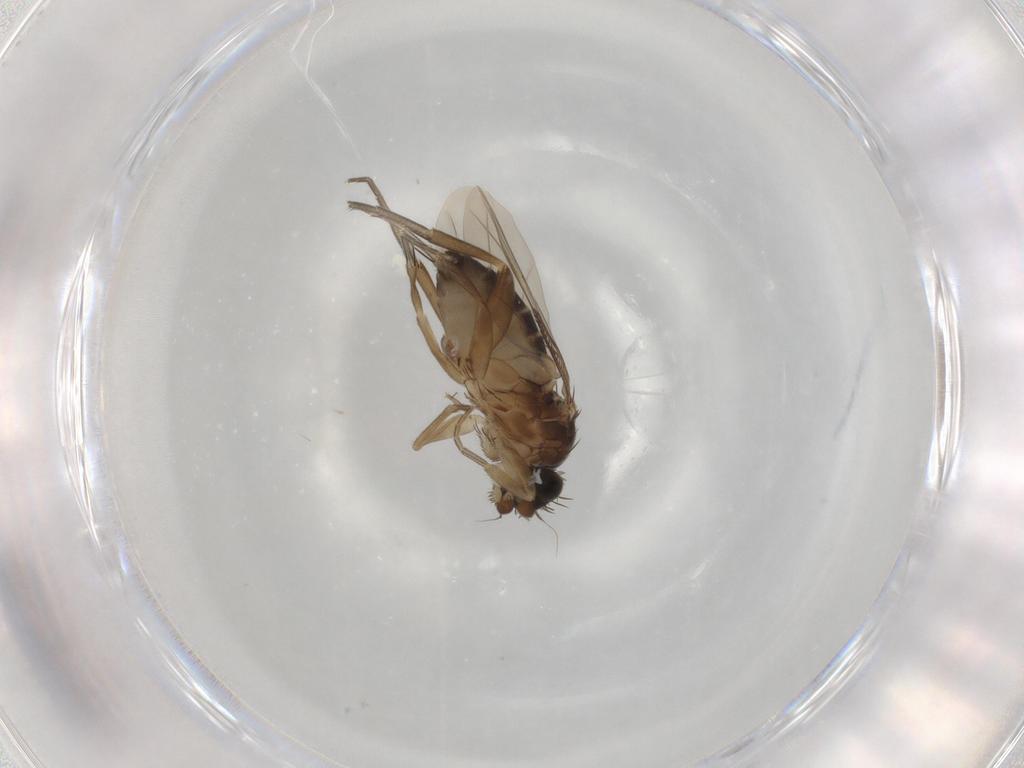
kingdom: Animalia
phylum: Arthropoda
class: Insecta
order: Diptera
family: Phoridae
